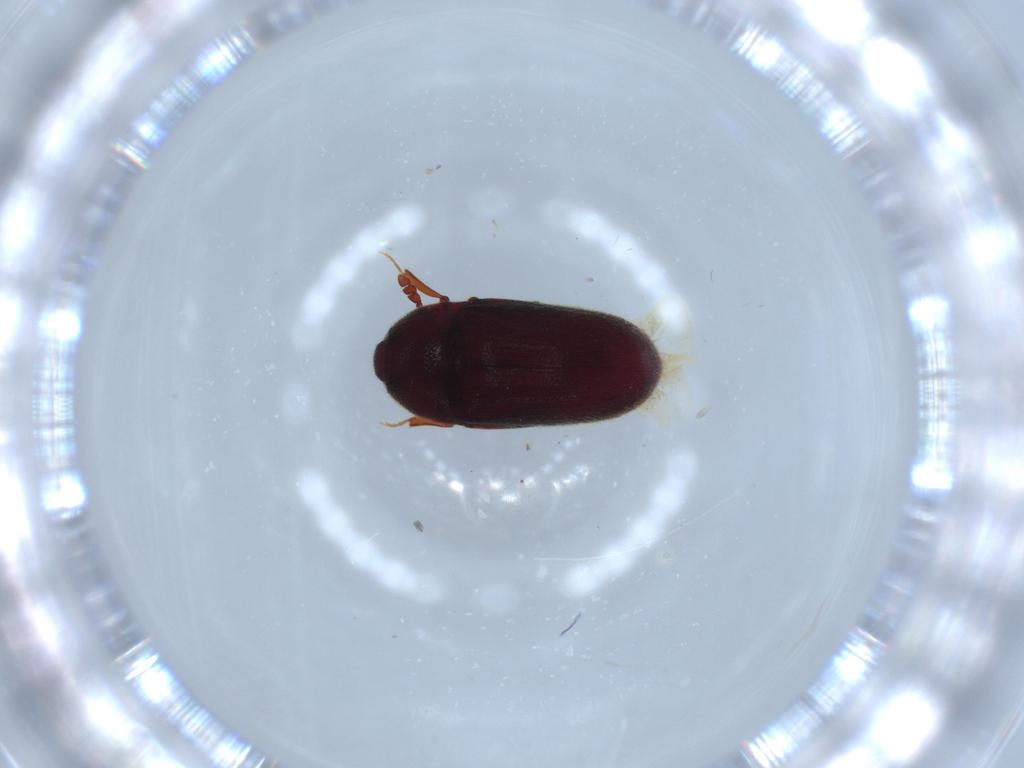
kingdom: Animalia
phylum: Arthropoda
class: Insecta
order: Coleoptera
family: Throscidae
